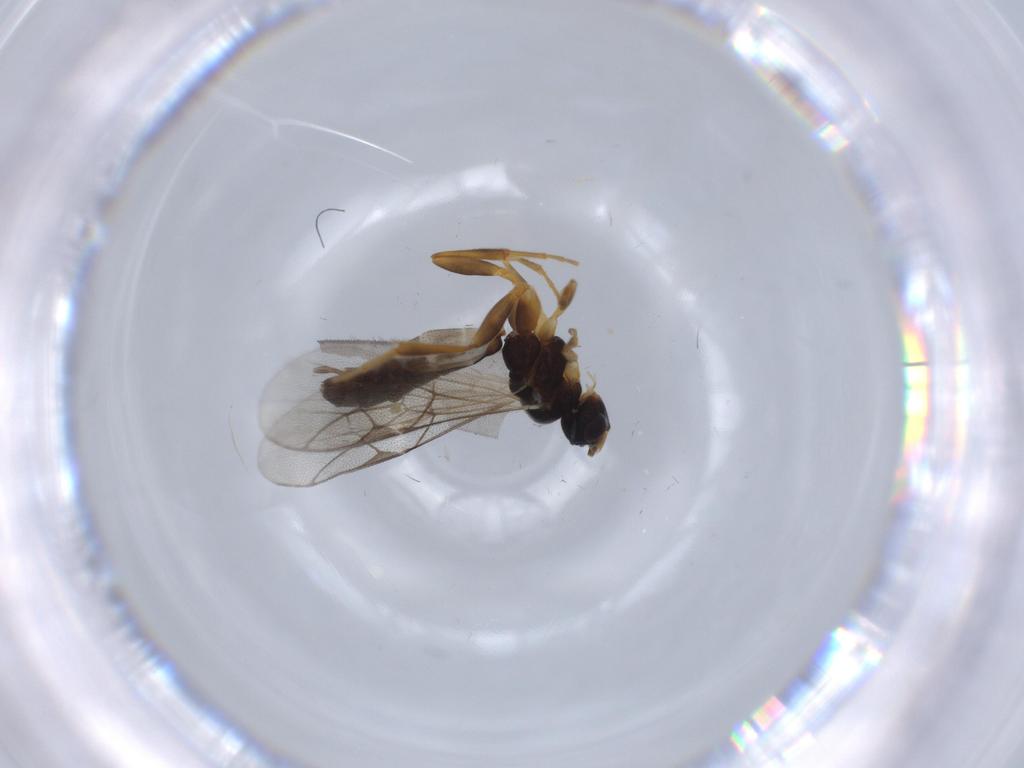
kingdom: Animalia
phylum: Arthropoda
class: Insecta
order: Hymenoptera
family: Ichneumonidae
